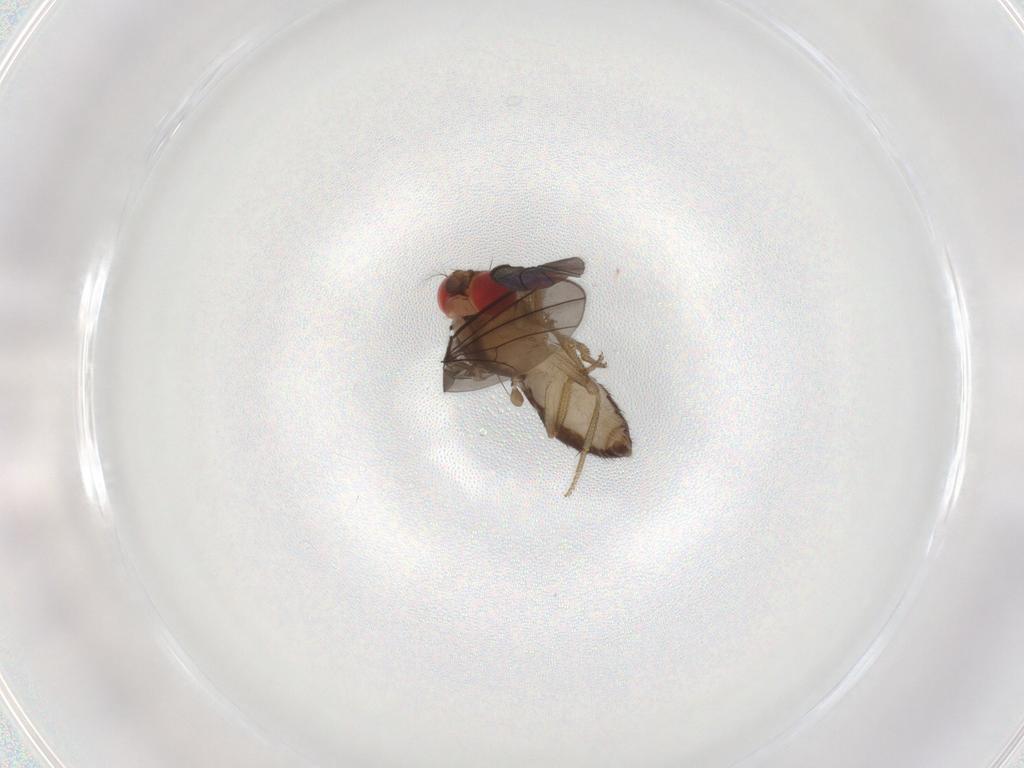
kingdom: Animalia
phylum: Arthropoda
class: Insecta
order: Diptera
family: Drosophilidae
